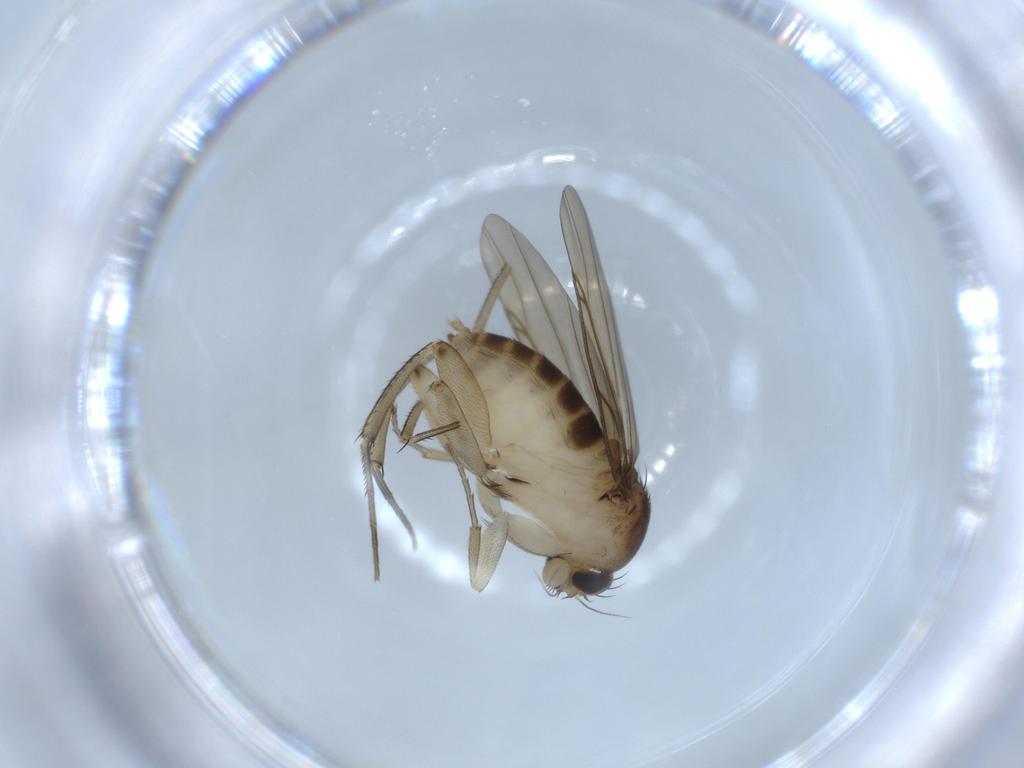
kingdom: Animalia
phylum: Arthropoda
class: Insecta
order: Diptera
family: Phoridae
